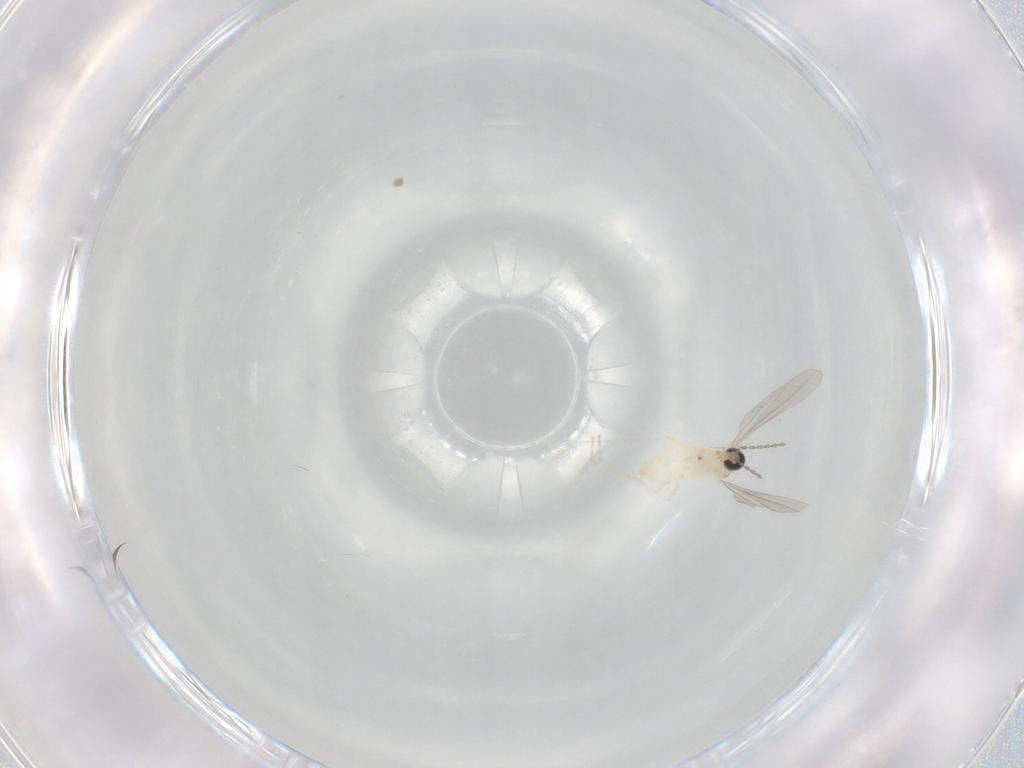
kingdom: Animalia
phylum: Arthropoda
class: Insecta
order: Diptera
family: Cecidomyiidae
